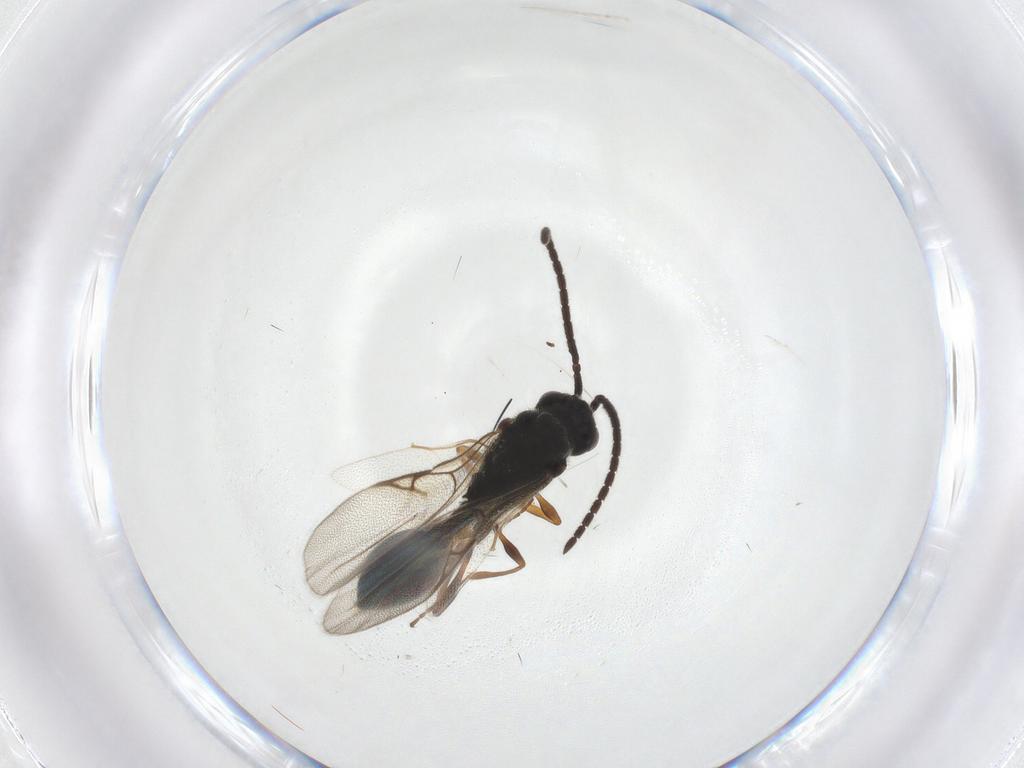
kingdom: Animalia
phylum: Arthropoda
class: Insecta
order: Hymenoptera
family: Diapriidae
